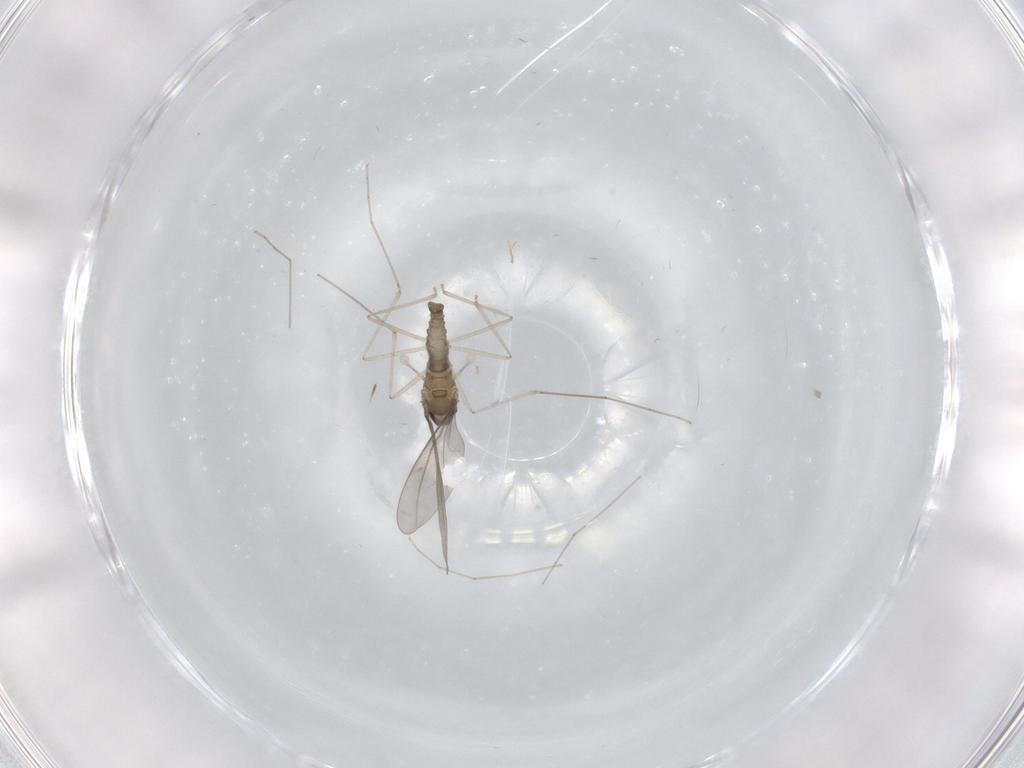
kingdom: Animalia
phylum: Arthropoda
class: Insecta
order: Diptera
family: Cecidomyiidae
